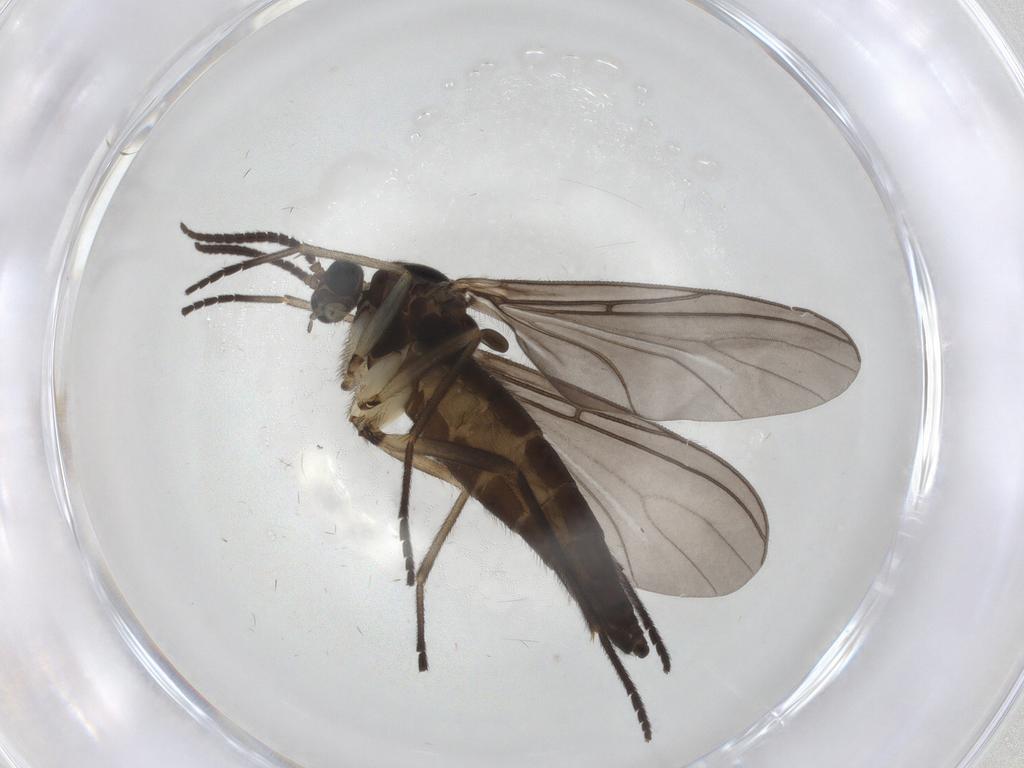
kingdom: Animalia
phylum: Arthropoda
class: Insecta
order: Diptera
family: Sciaridae
